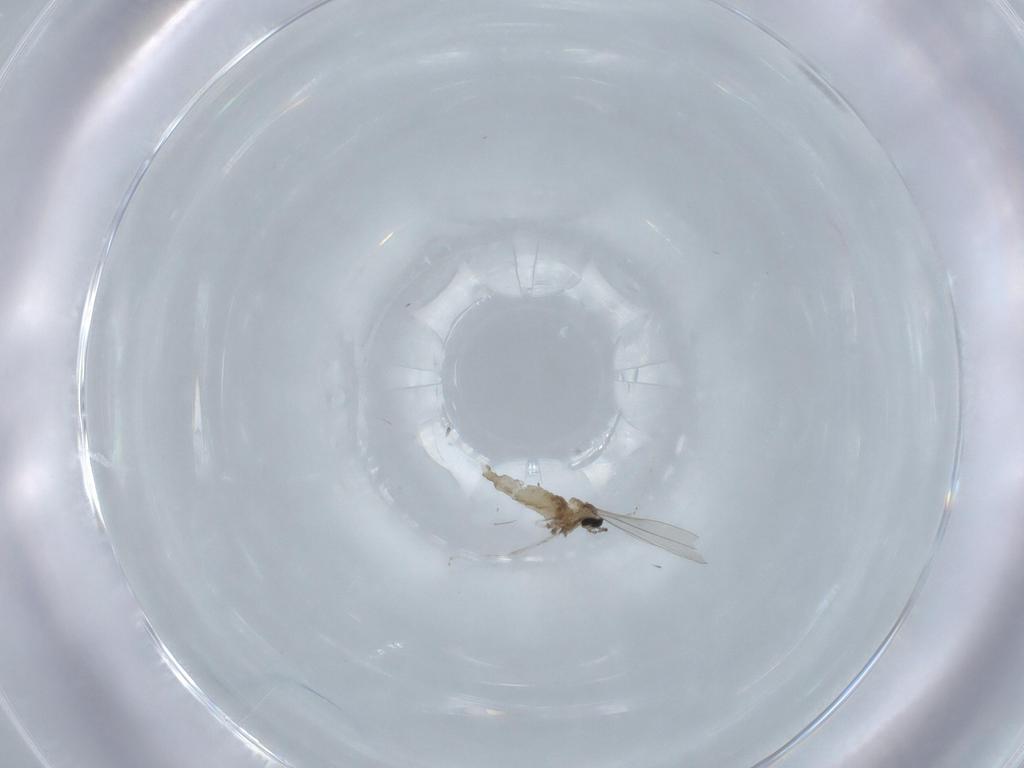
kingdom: Animalia
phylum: Arthropoda
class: Insecta
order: Diptera
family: Cecidomyiidae
